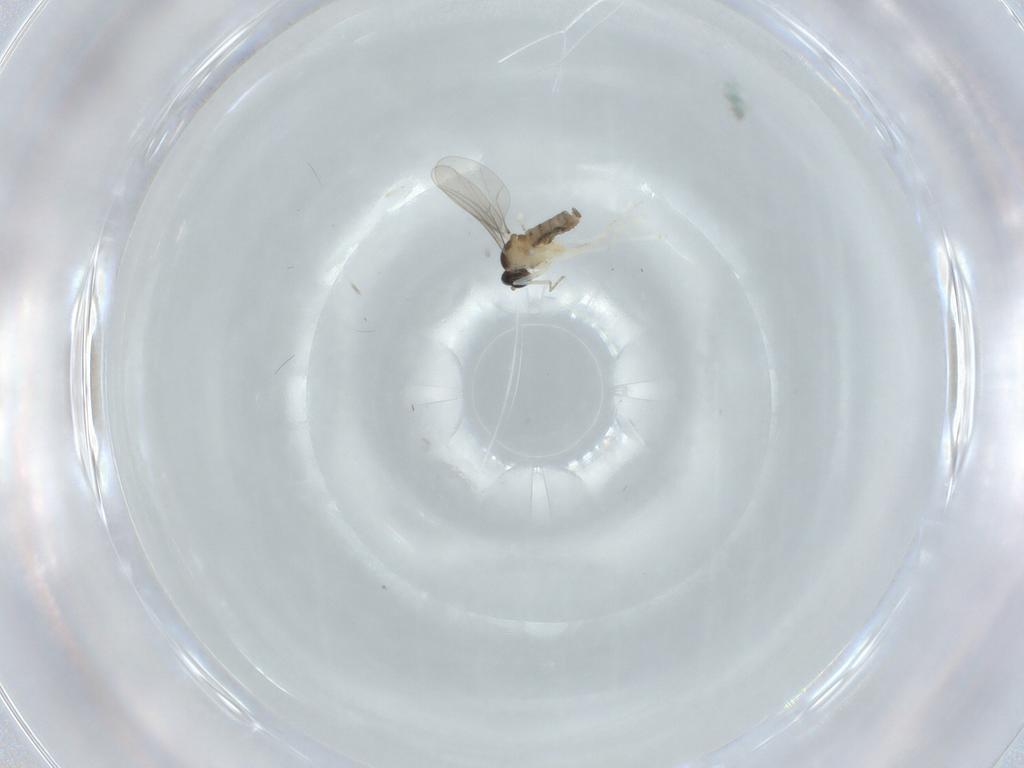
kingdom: Animalia
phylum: Arthropoda
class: Insecta
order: Diptera
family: Cecidomyiidae
